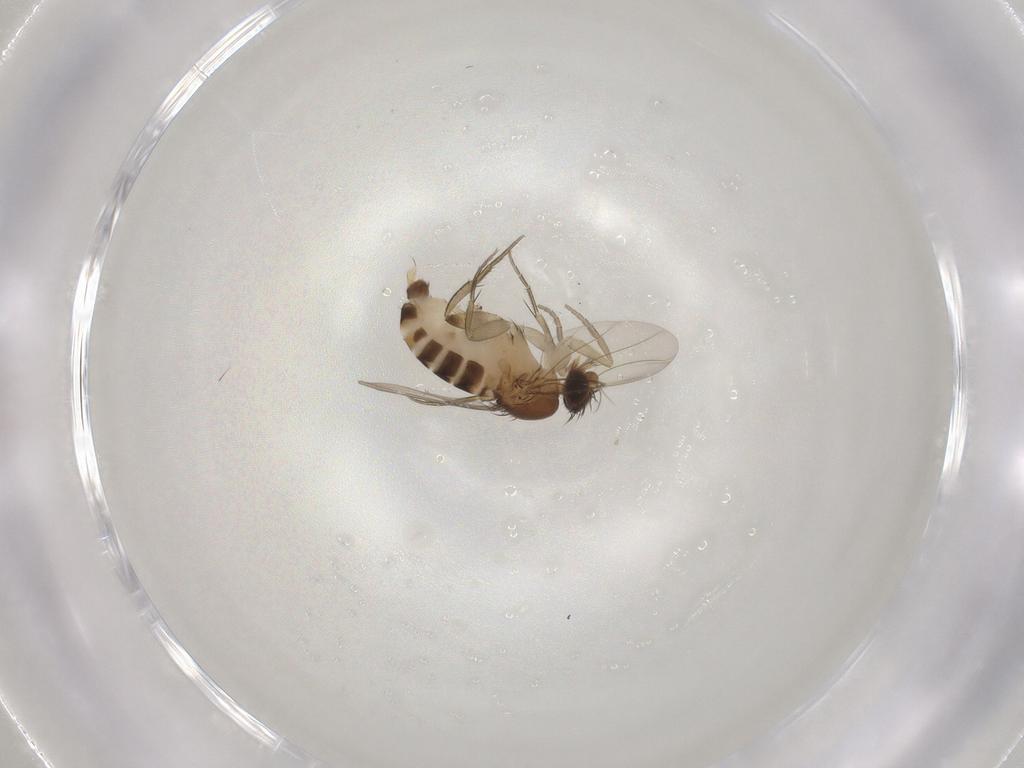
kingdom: Animalia
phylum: Arthropoda
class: Insecta
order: Diptera
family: Phoridae
